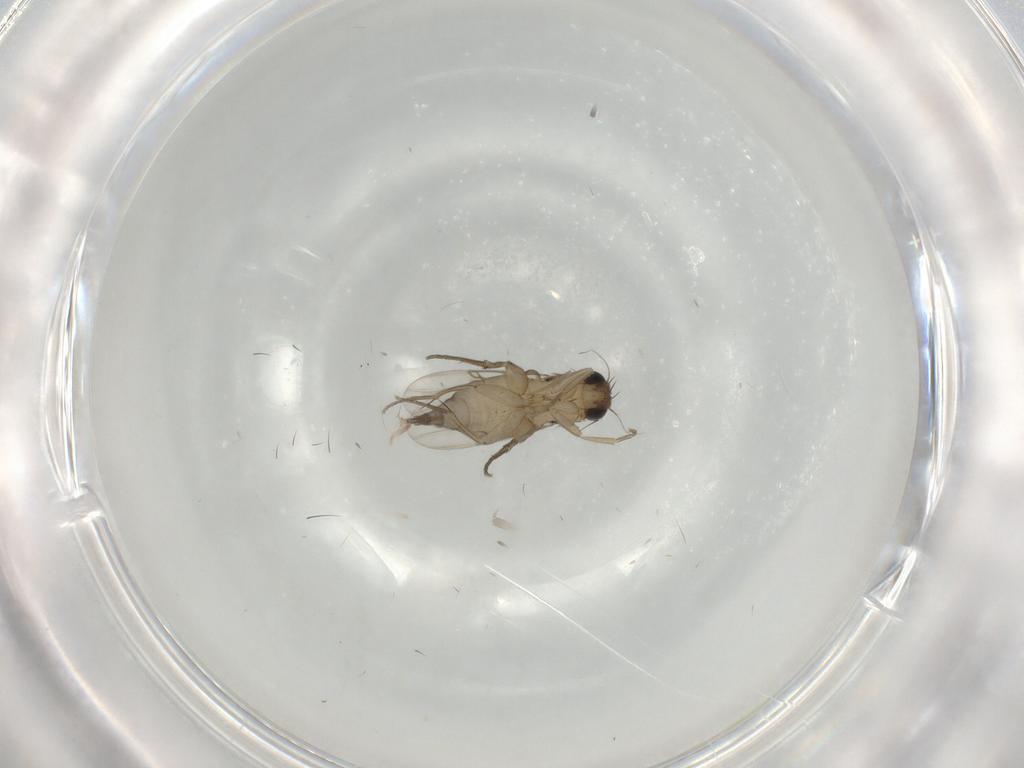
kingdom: Animalia
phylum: Arthropoda
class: Insecta
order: Diptera
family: Phoridae
